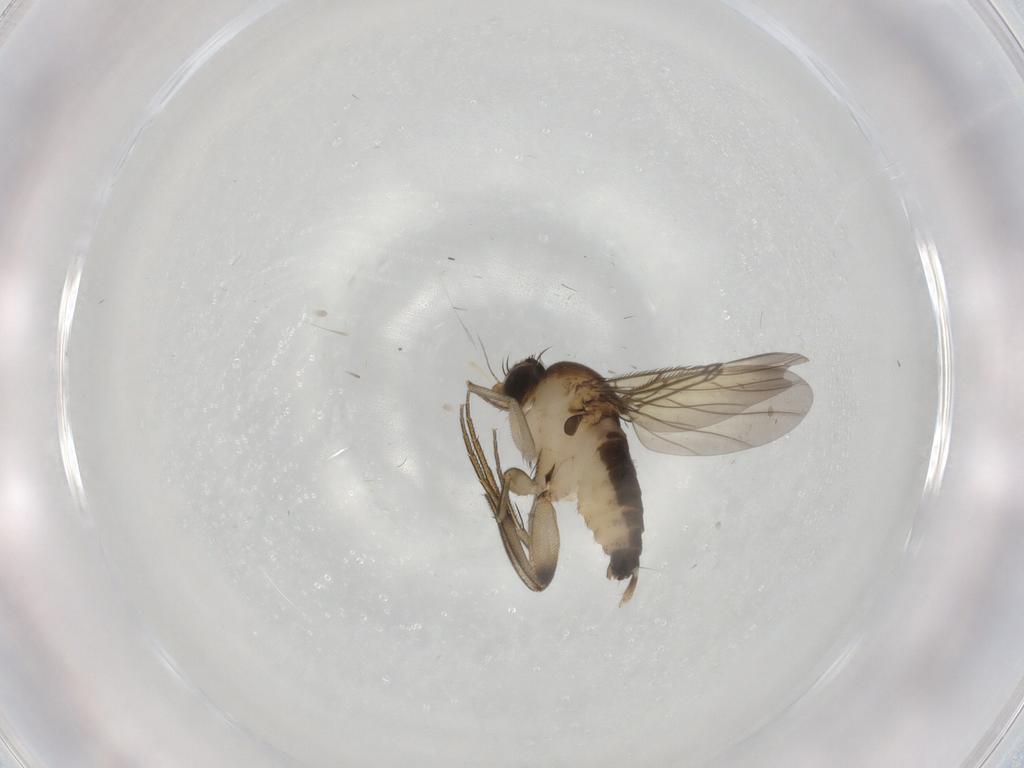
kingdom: Animalia
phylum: Arthropoda
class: Insecta
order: Diptera
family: Phoridae
